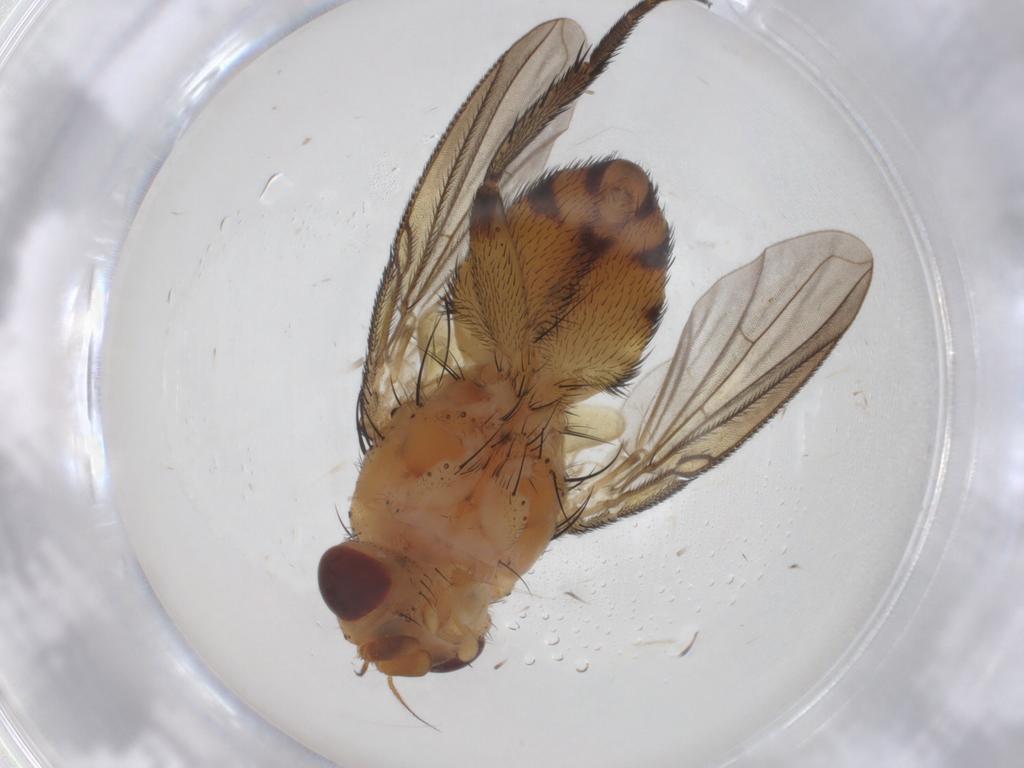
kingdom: Animalia
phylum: Arthropoda
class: Insecta
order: Diptera
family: Tachinidae
